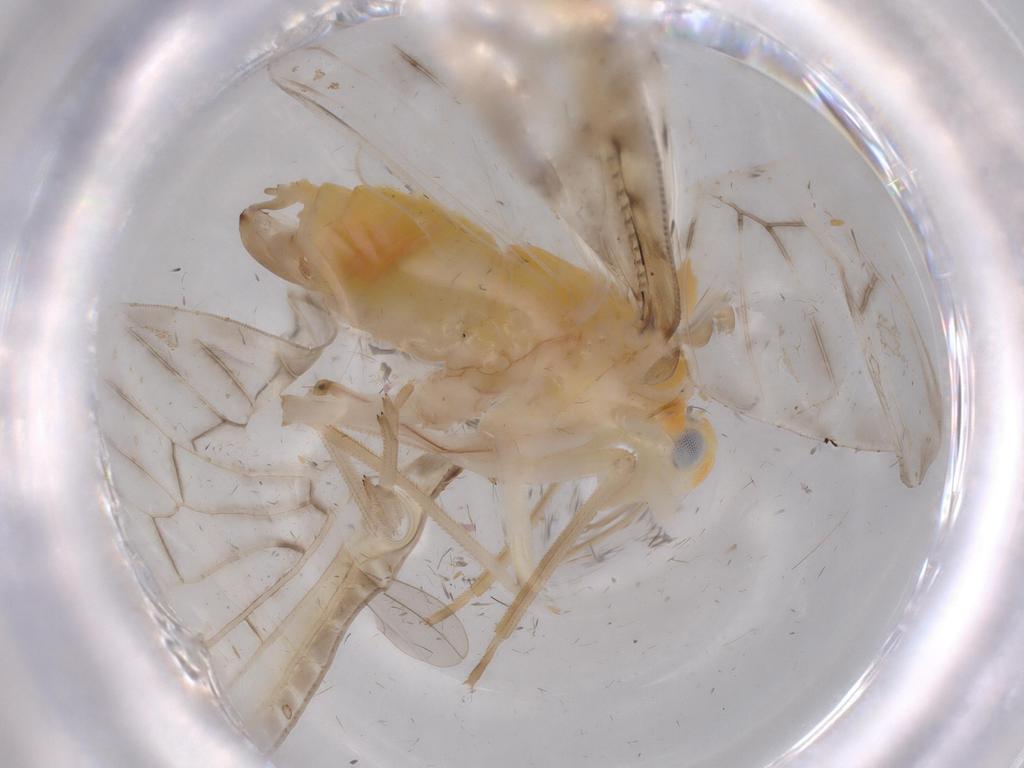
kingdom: Animalia
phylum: Arthropoda
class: Insecta
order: Hemiptera
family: Derbidae
